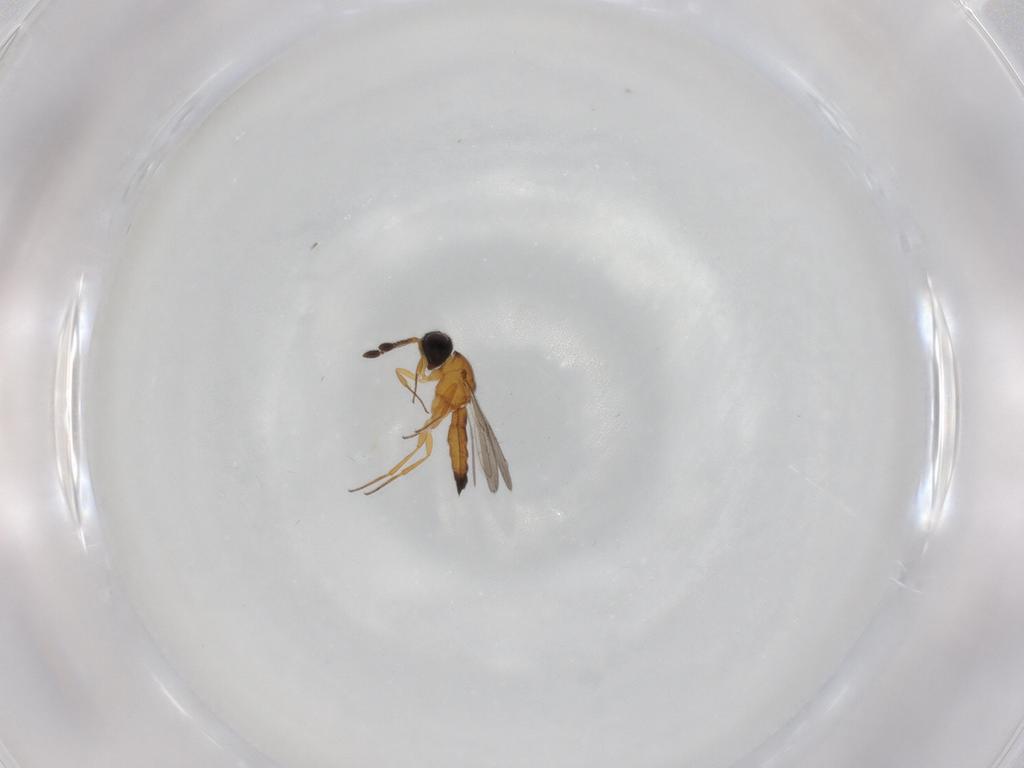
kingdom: Animalia
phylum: Arthropoda
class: Insecta
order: Hymenoptera
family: Scelionidae
